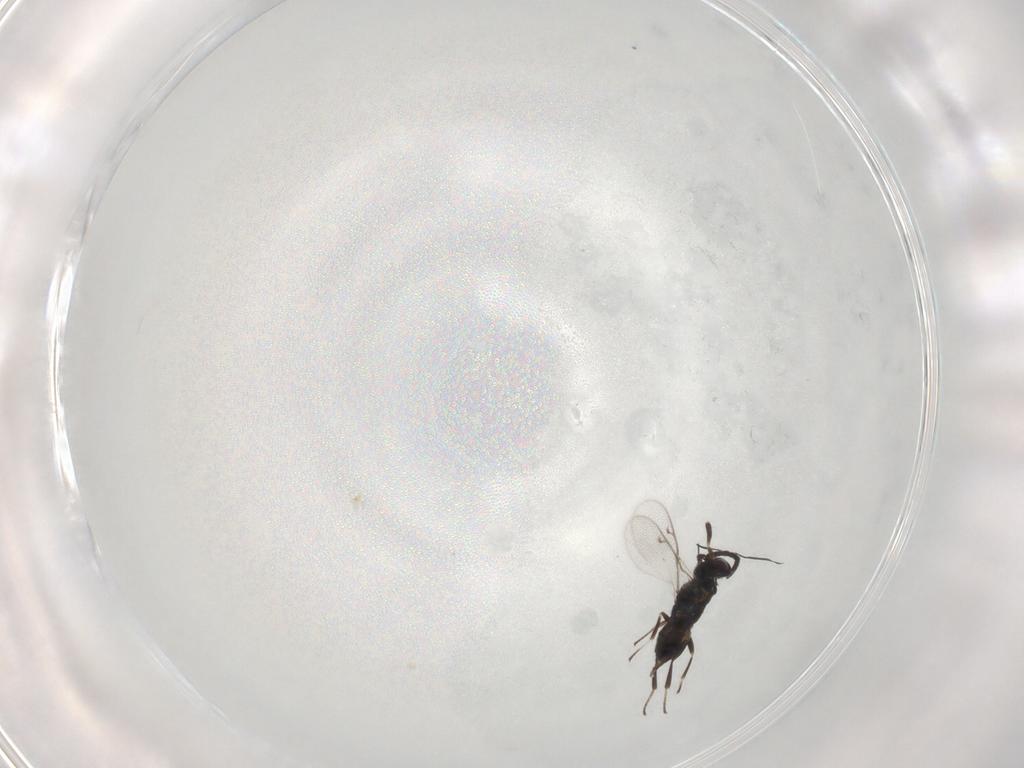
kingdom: Animalia
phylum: Arthropoda
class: Insecta
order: Hymenoptera
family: Eupelmidae
